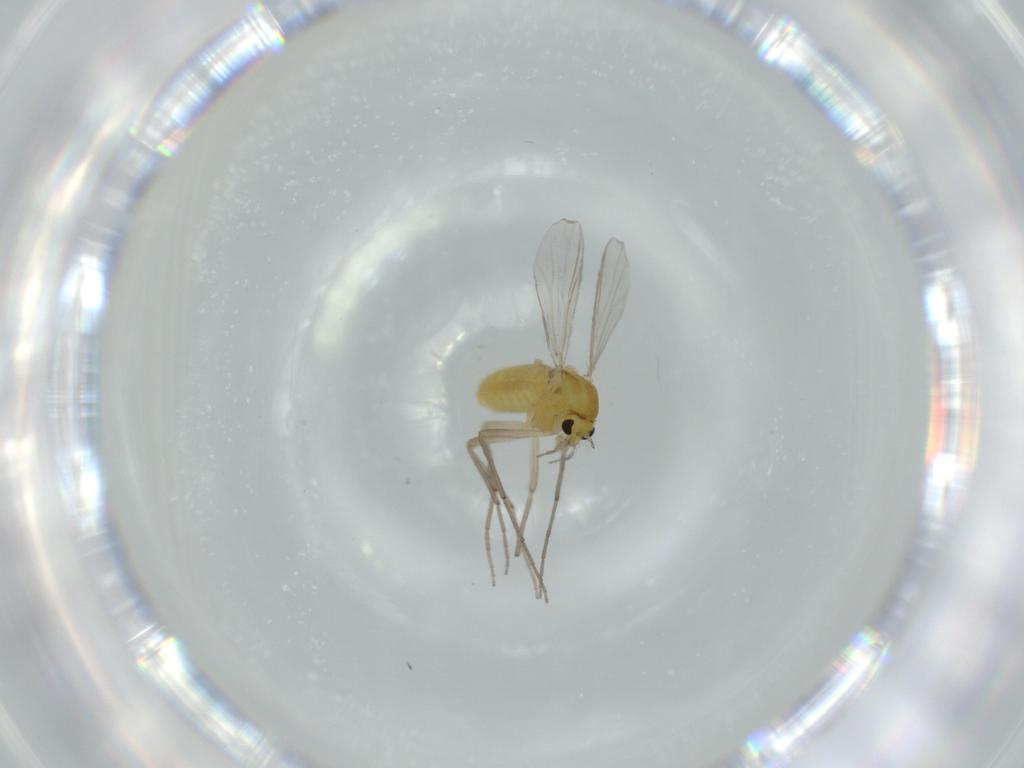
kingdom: Animalia
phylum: Arthropoda
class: Insecta
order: Diptera
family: Chironomidae
